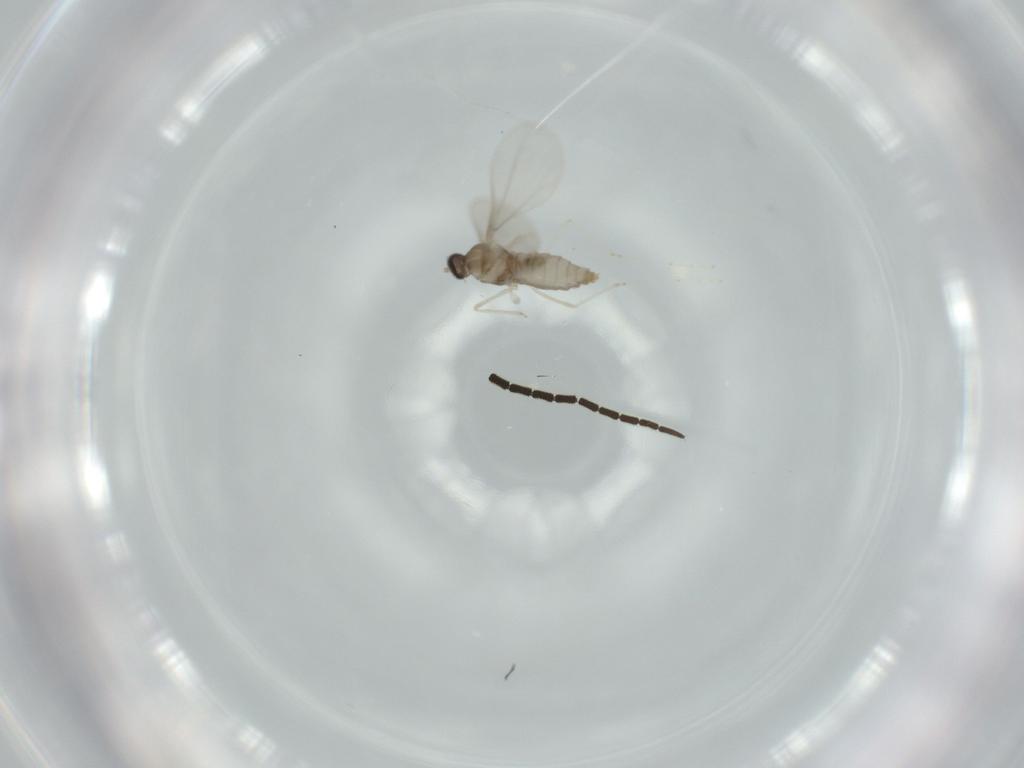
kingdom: Animalia
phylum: Arthropoda
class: Insecta
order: Diptera
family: Cecidomyiidae
